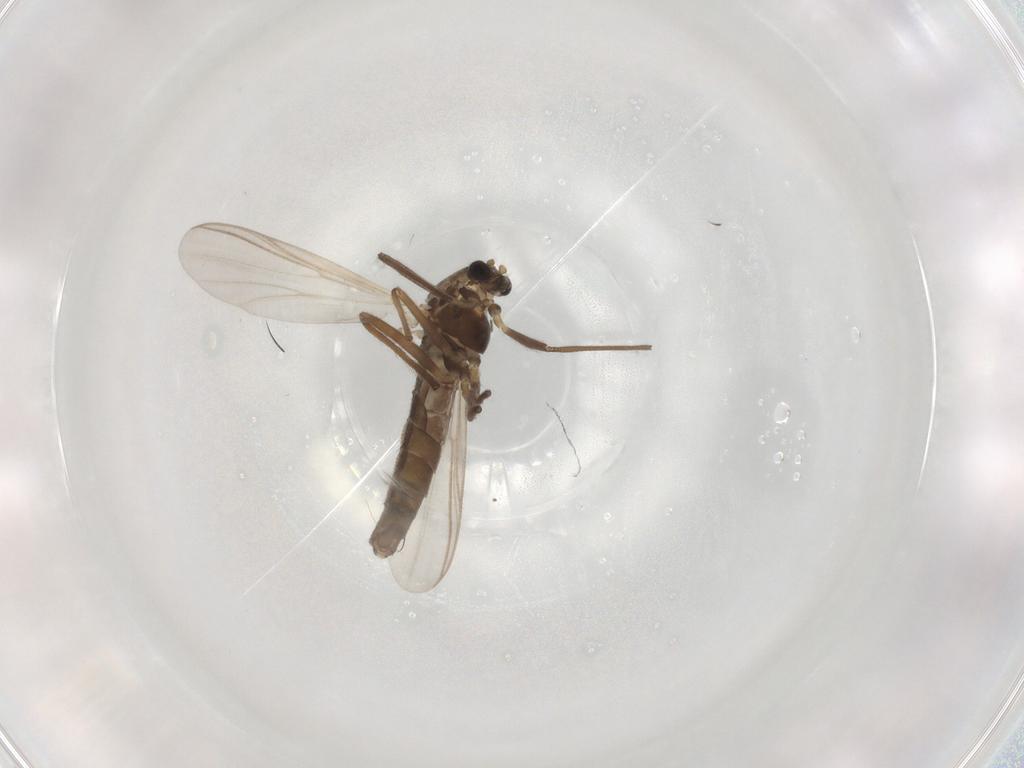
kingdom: Animalia
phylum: Arthropoda
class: Insecta
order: Diptera
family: Chironomidae
